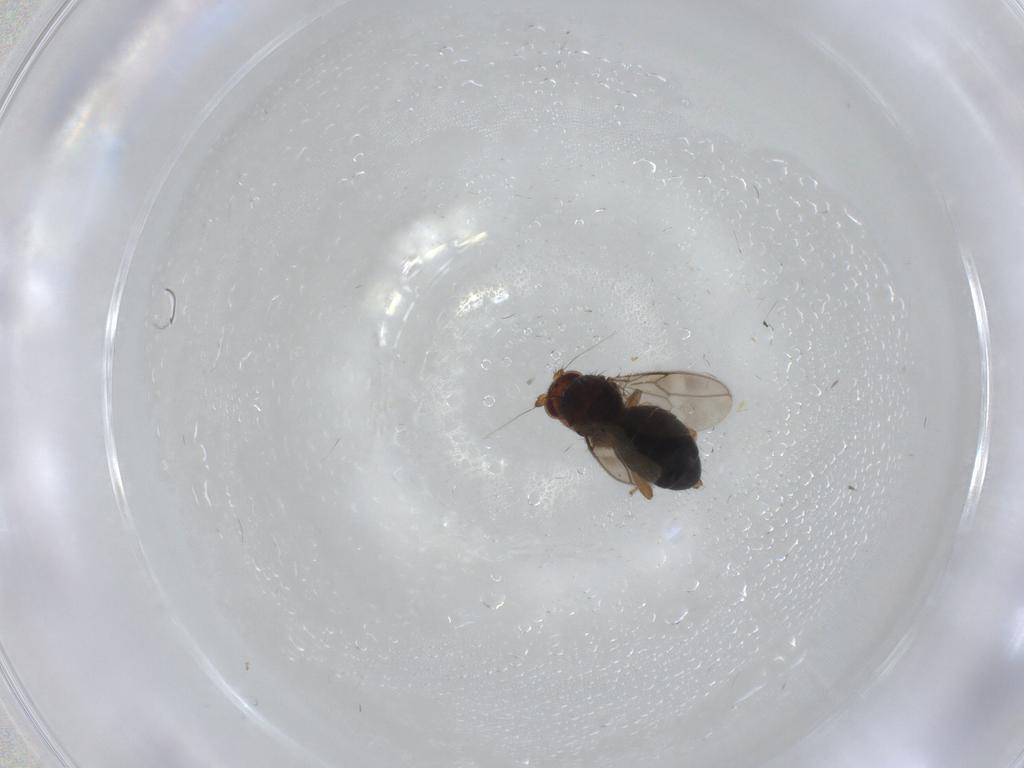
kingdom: Animalia
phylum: Arthropoda
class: Insecta
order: Diptera
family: Sphaeroceridae
